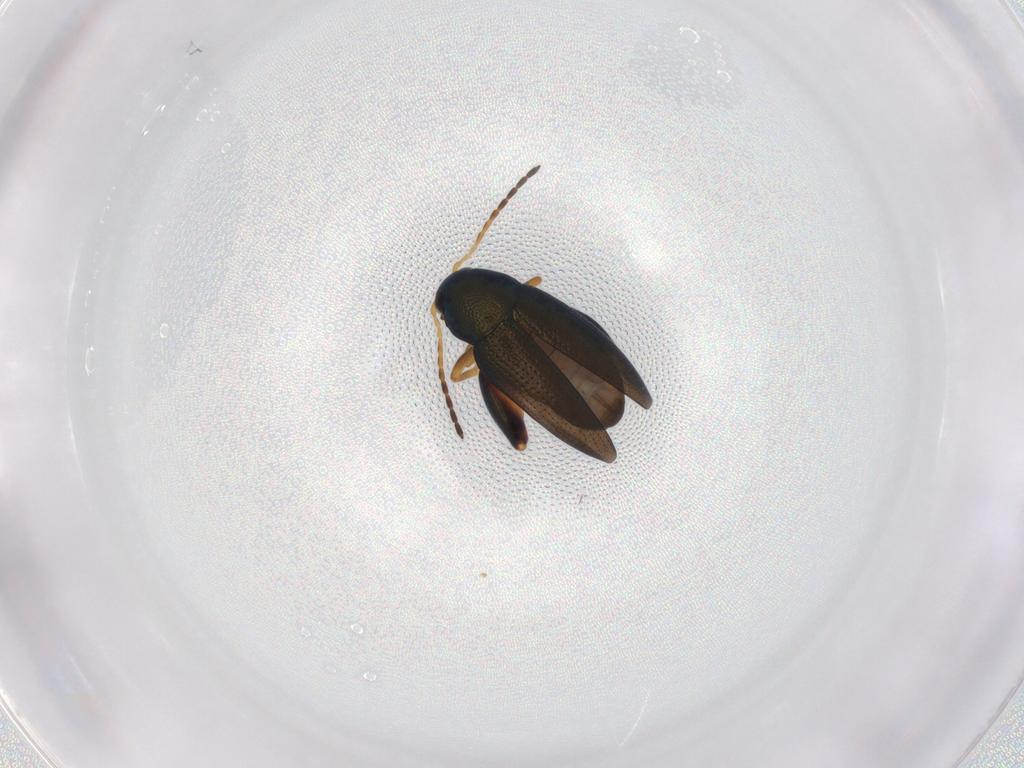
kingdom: Animalia
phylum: Arthropoda
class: Insecta
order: Coleoptera
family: Chrysomelidae
